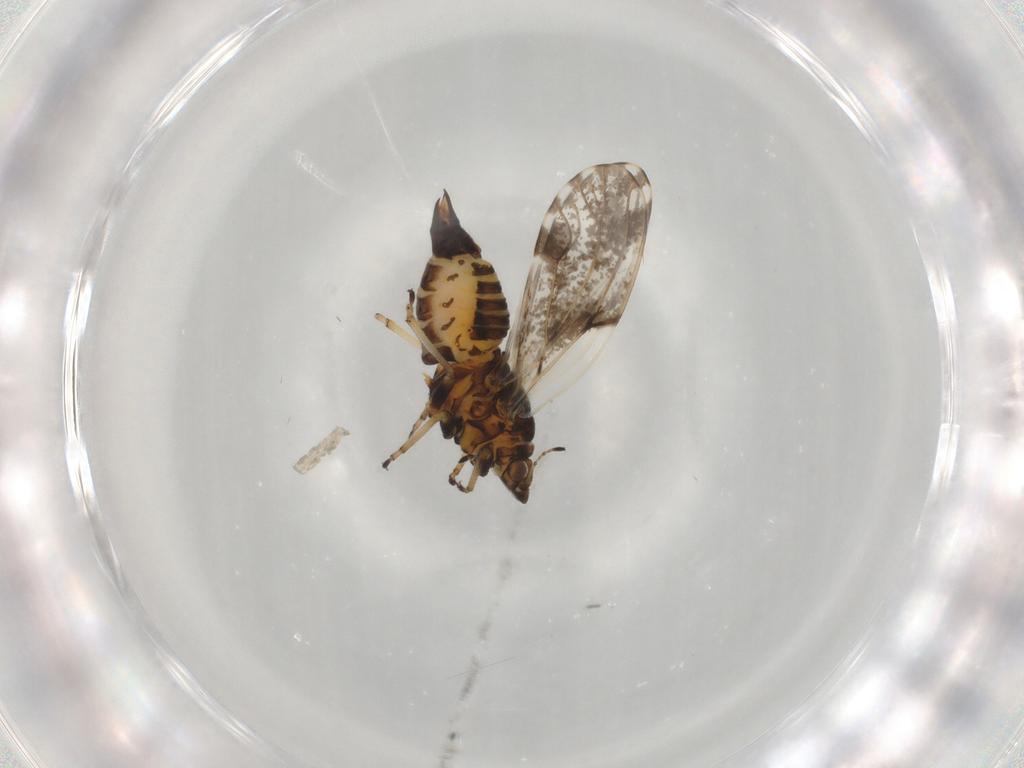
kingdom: Animalia
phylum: Arthropoda
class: Insecta
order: Hemiptera
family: Psylloidea_incertae_sedis
